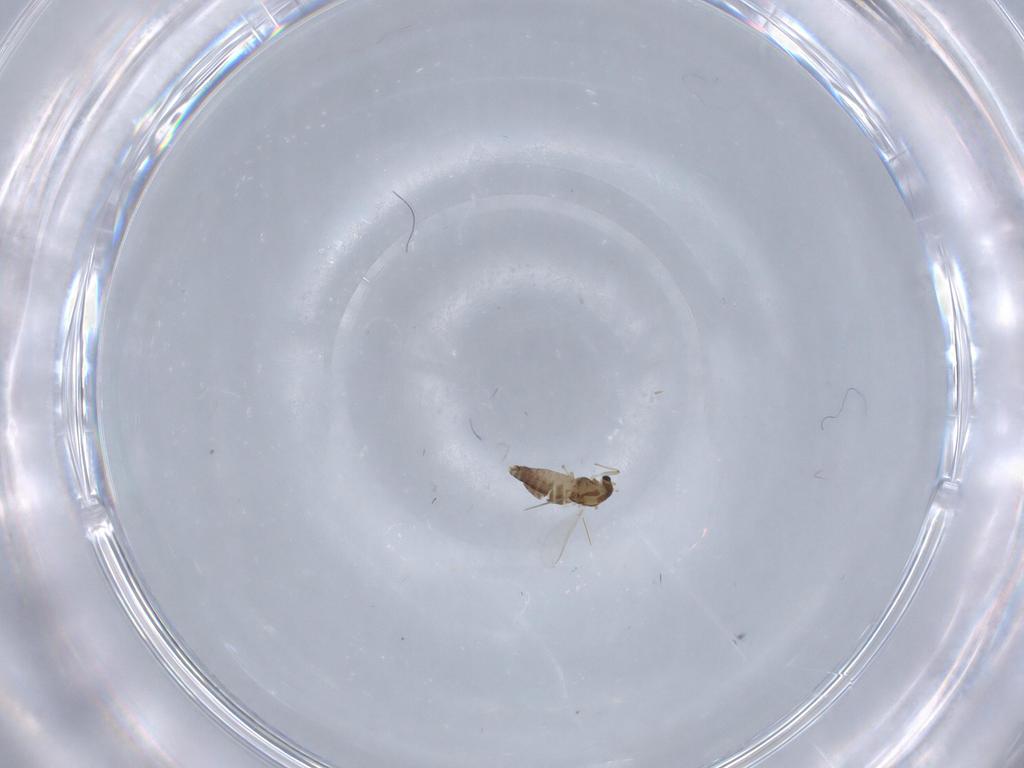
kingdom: Animalia
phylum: Arthropoda
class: Insecta
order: Diptera
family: Chironomidae
